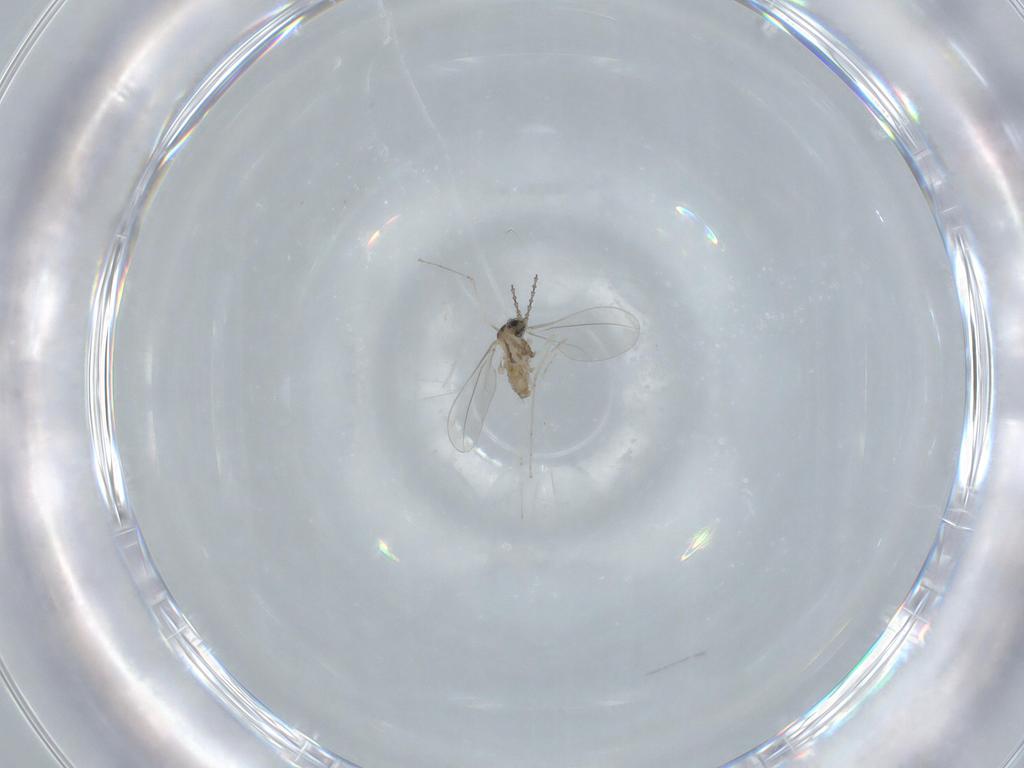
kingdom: Animalia
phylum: Arthropoda
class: Insecta
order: Diptera
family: Cecidomyiidae
